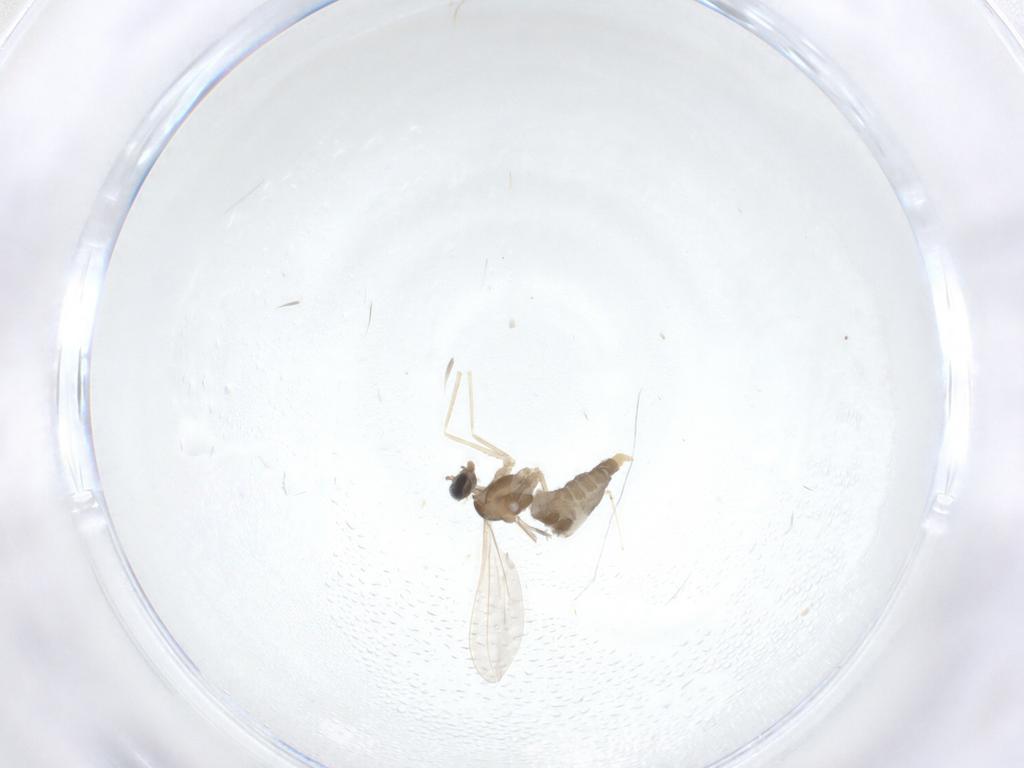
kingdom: Animalia
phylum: Arthropoda
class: Insecta
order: Diptera
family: Cecidomyiidae
